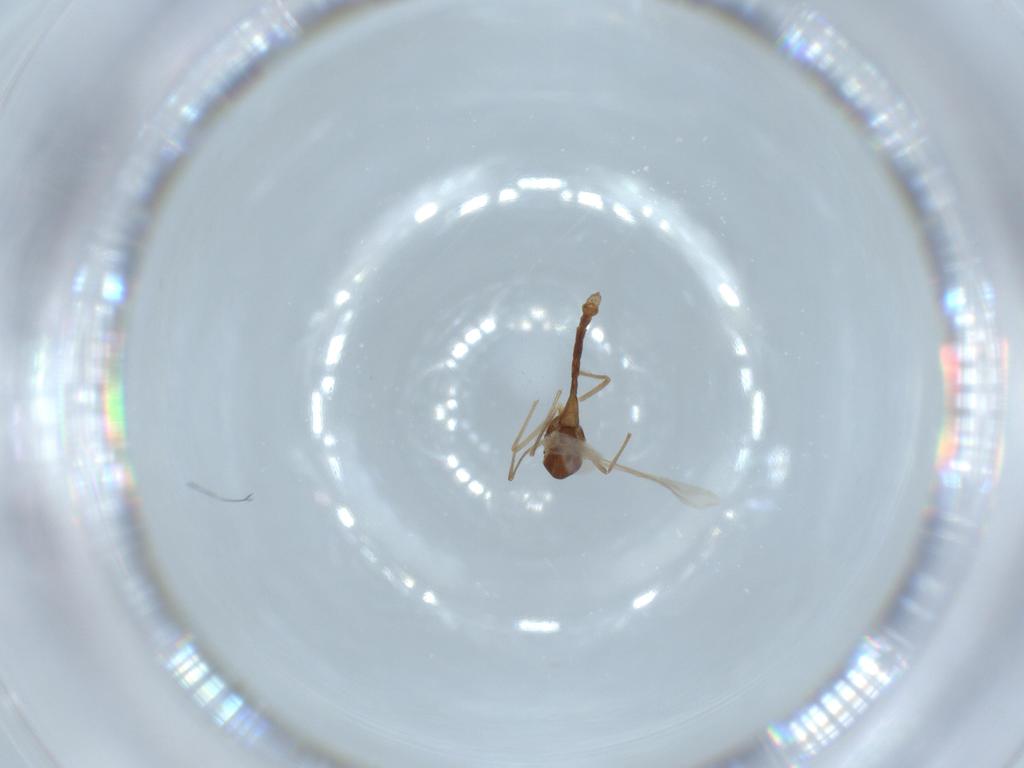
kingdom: Animalia
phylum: Arthropoda
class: Insecta
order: Diptera
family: Chironomidae
